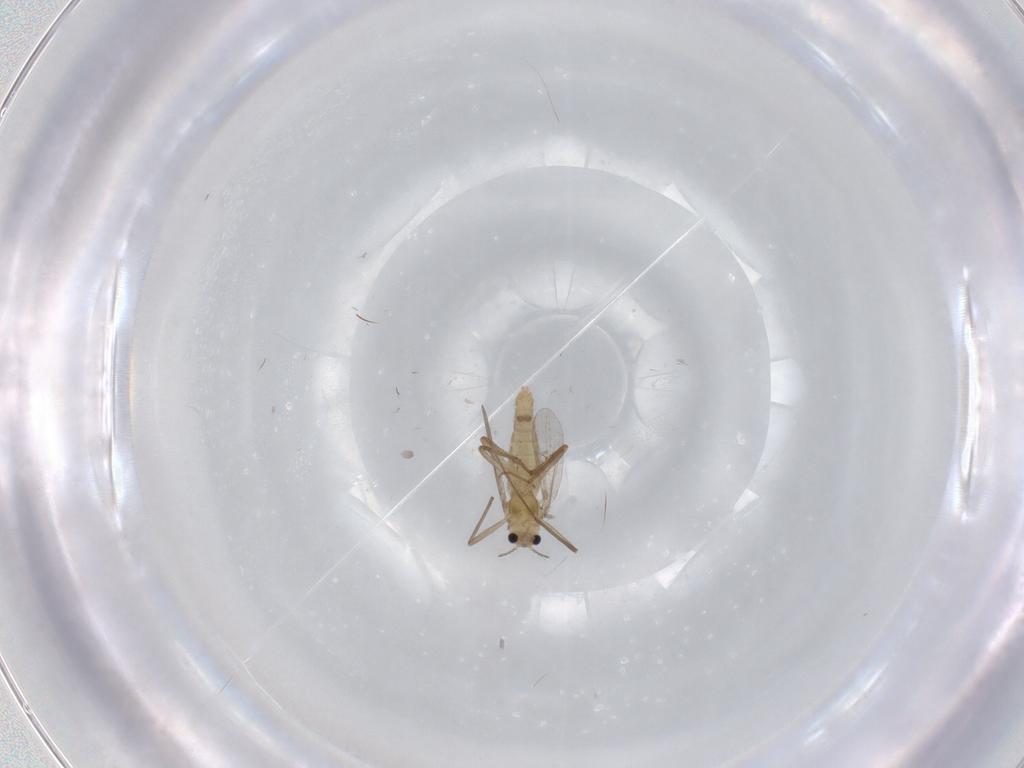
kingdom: Animalia
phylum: Arthropoda
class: Insecta
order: Diptera
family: Chironomidae
